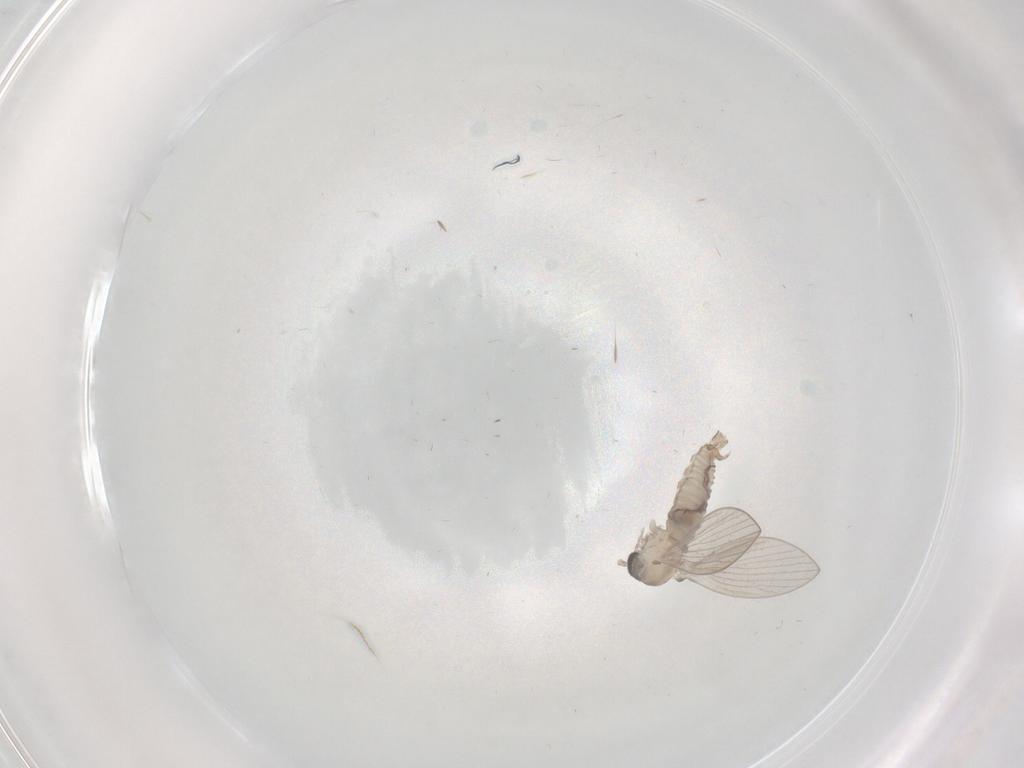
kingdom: Animalia
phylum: Arthropoda
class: Insecta
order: Diptera
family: Psychodidae
